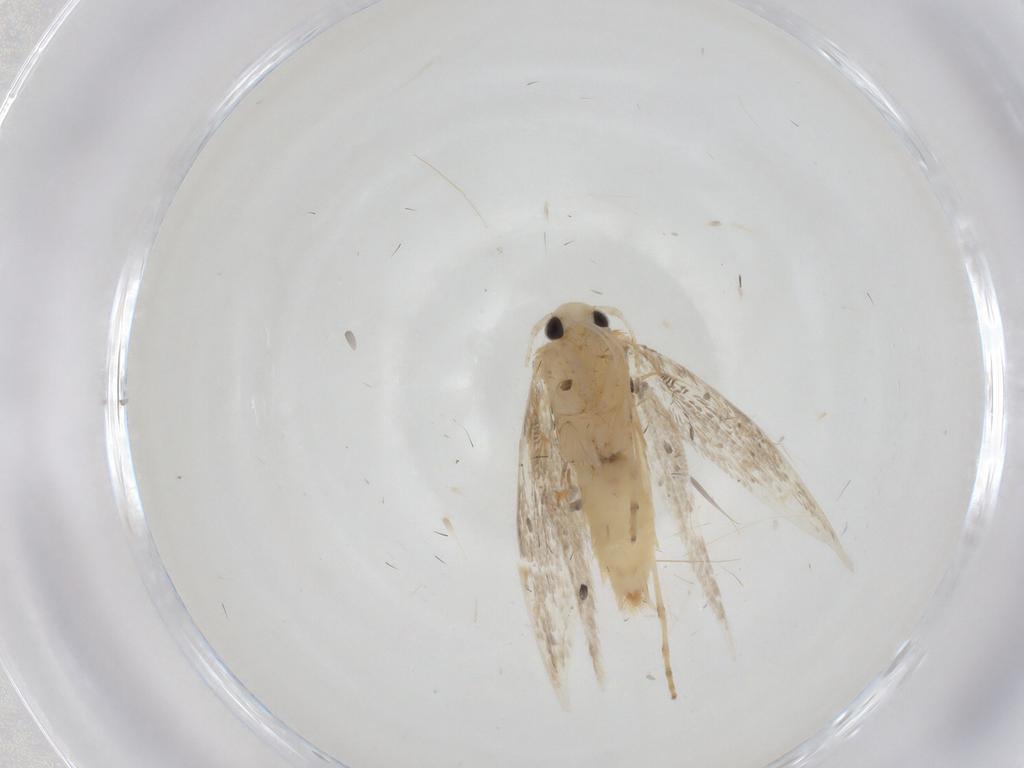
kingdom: Animalia
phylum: Arthropoda
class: Insecta
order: Lepidoptera
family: Gracillariidae
